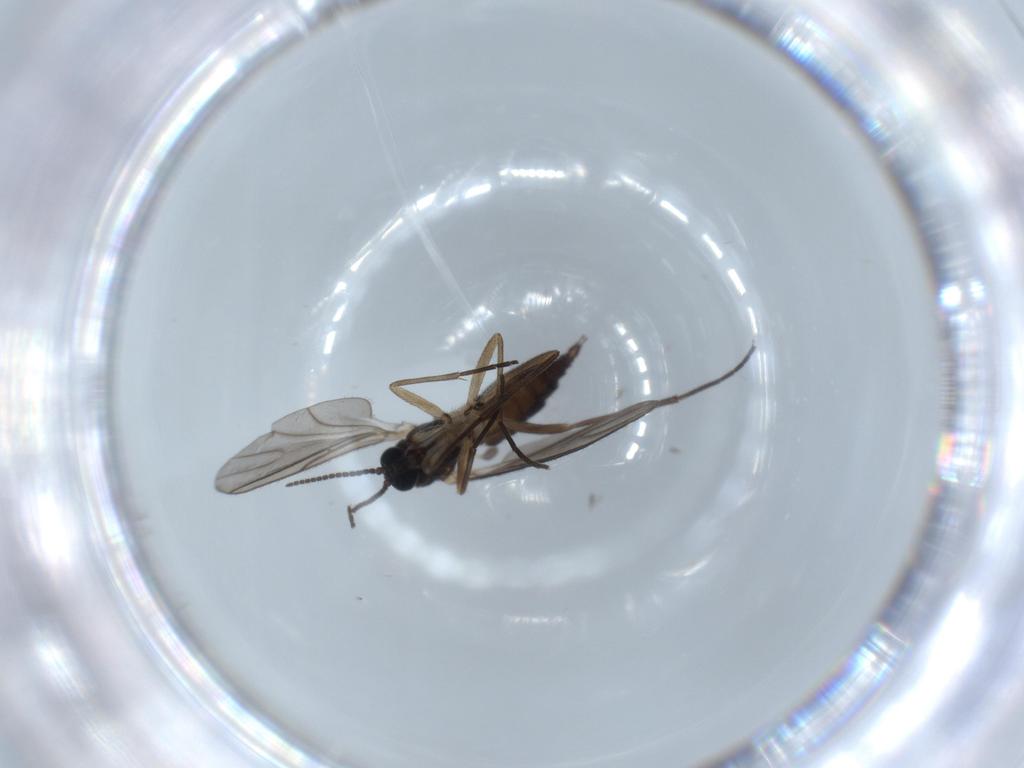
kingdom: Animalia
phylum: Arthropoda
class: Insecta
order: Diptera
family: Sciaridae
